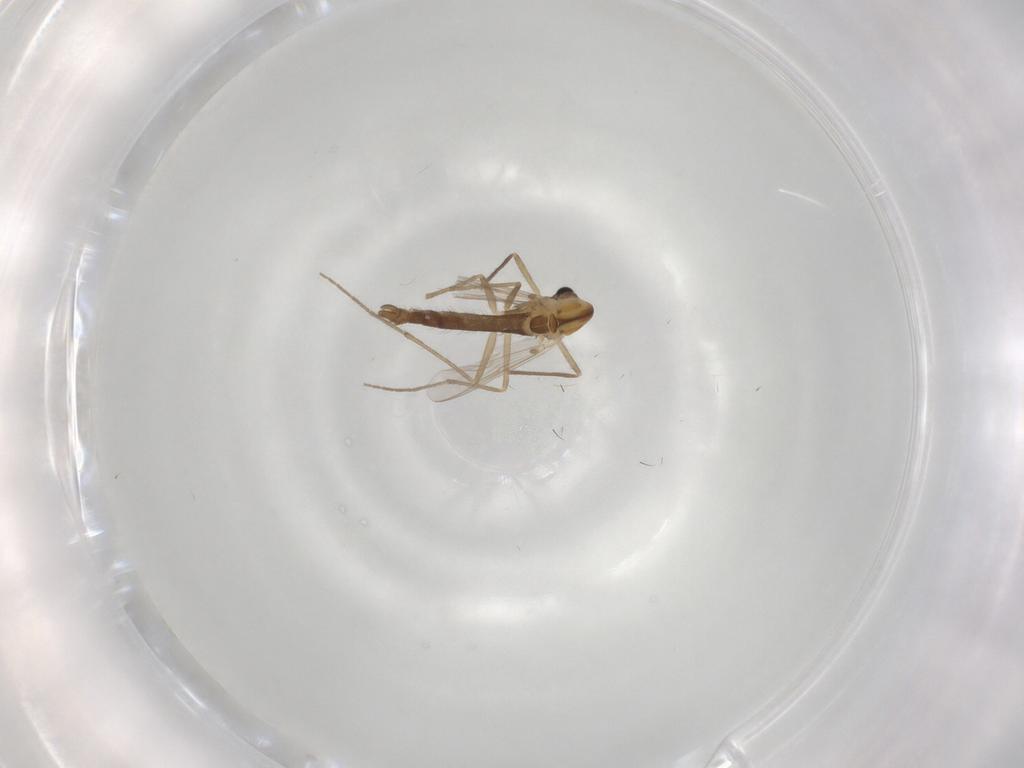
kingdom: Animalia
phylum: Arthropoda
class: Insecta
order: Diptera
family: Chironomidae
